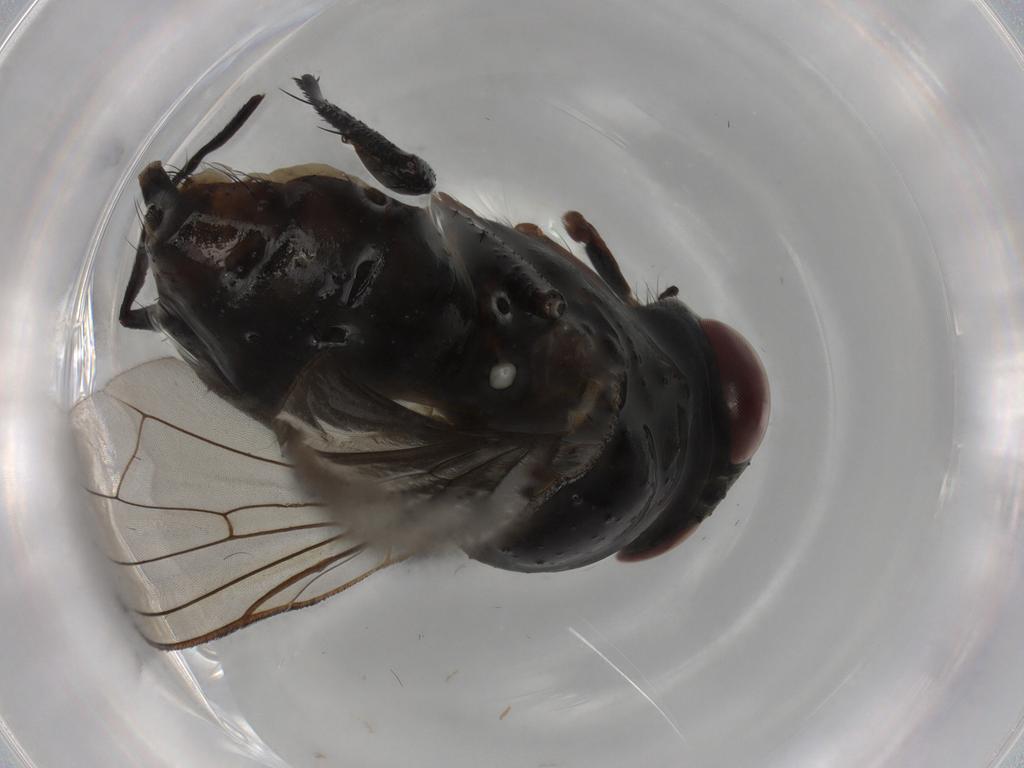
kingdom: Animalia
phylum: Arthropoda
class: Insecta
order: Diptera
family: Anthomyiidae
